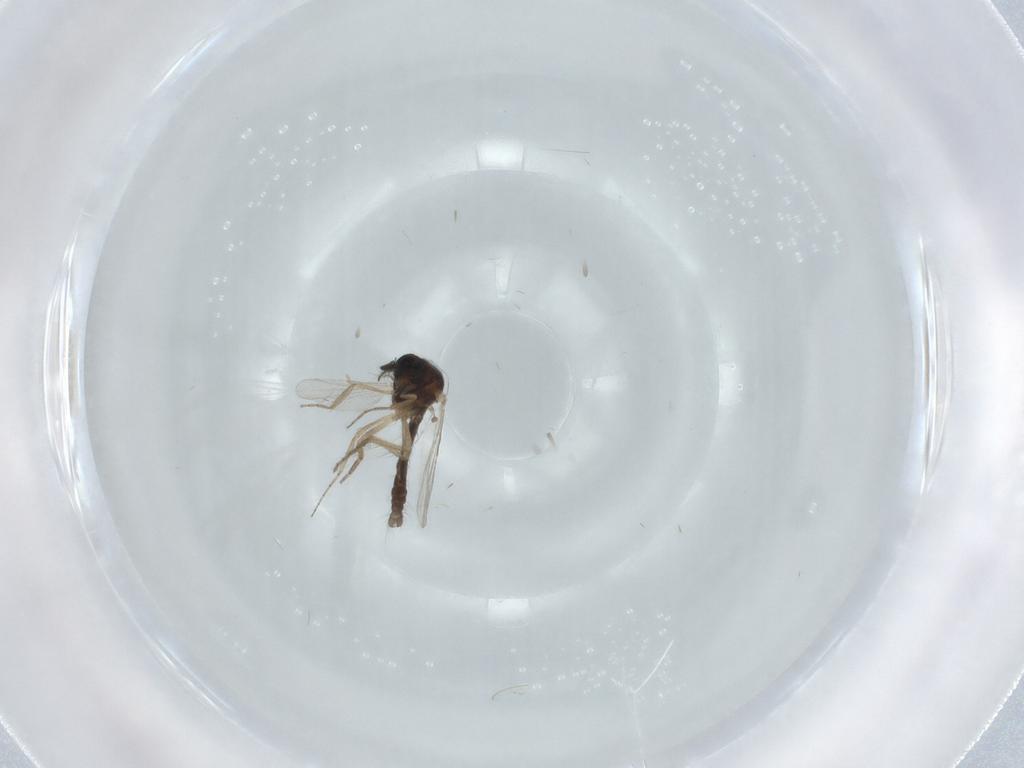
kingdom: Animalia
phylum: Arthropoda
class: Insecta
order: Diptera
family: Ceratopogonidae
